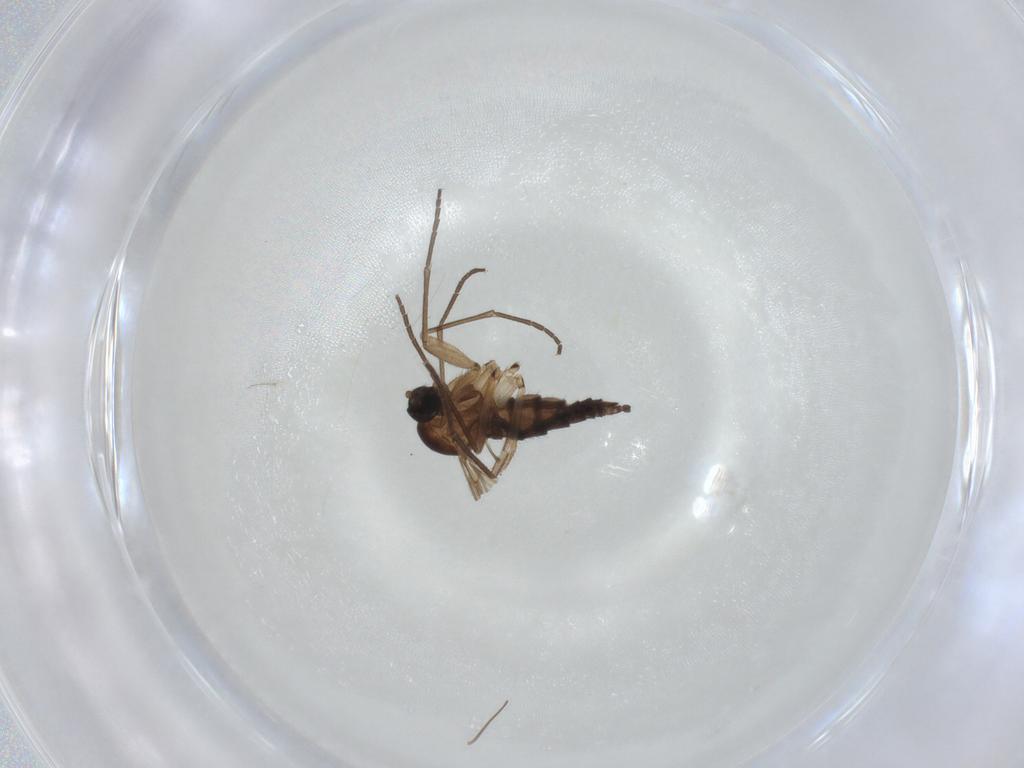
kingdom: Animalia
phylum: Arthropoda
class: Insecta
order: Diptera
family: Sciaridae
